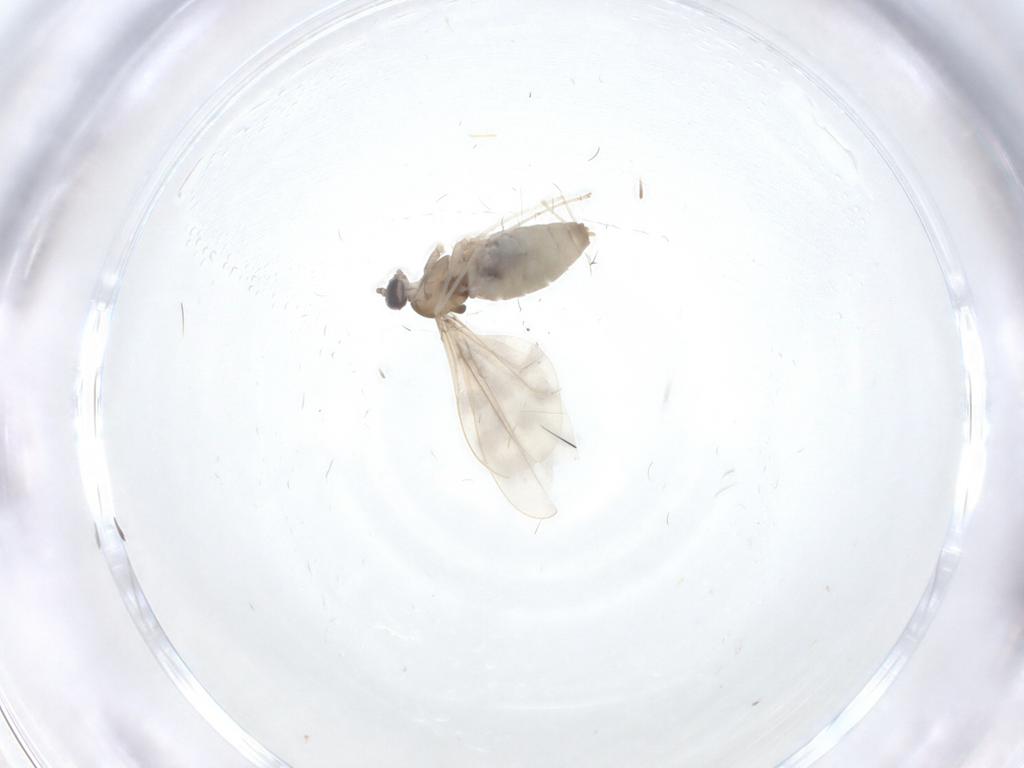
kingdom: Animalia
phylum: Arthropoda
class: Insecta
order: Diptera
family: Cecidomyiidae
